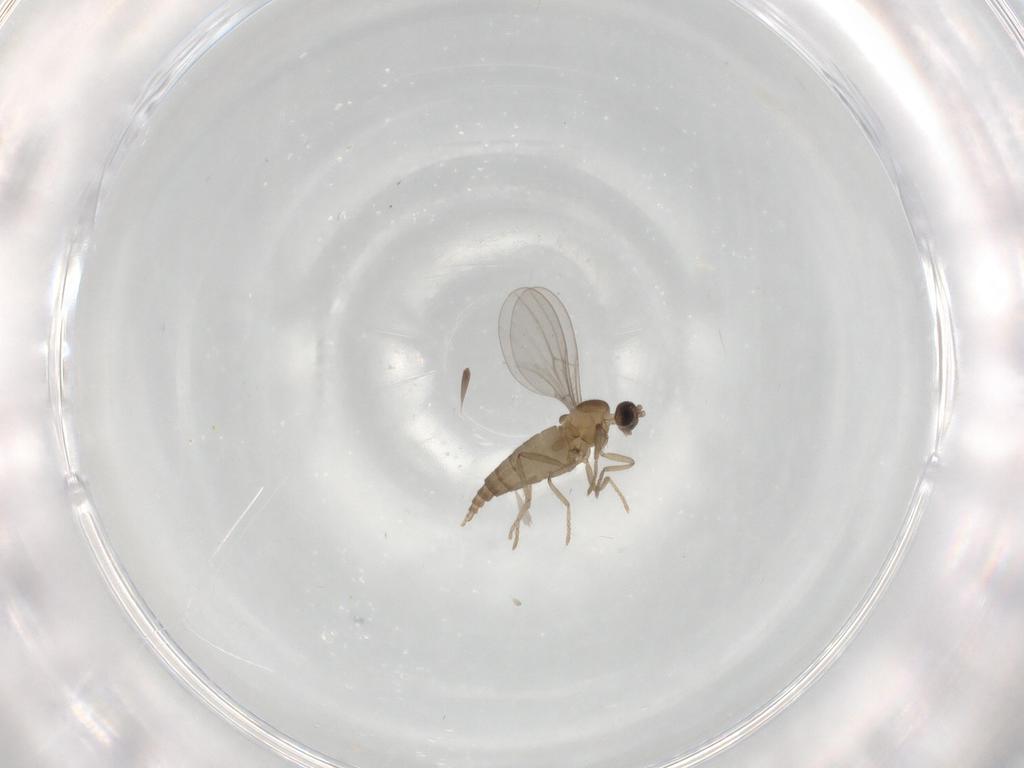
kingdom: Animalia
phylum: Arthropoda
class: Insecta
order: Diptera
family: Cecidomyiidae
